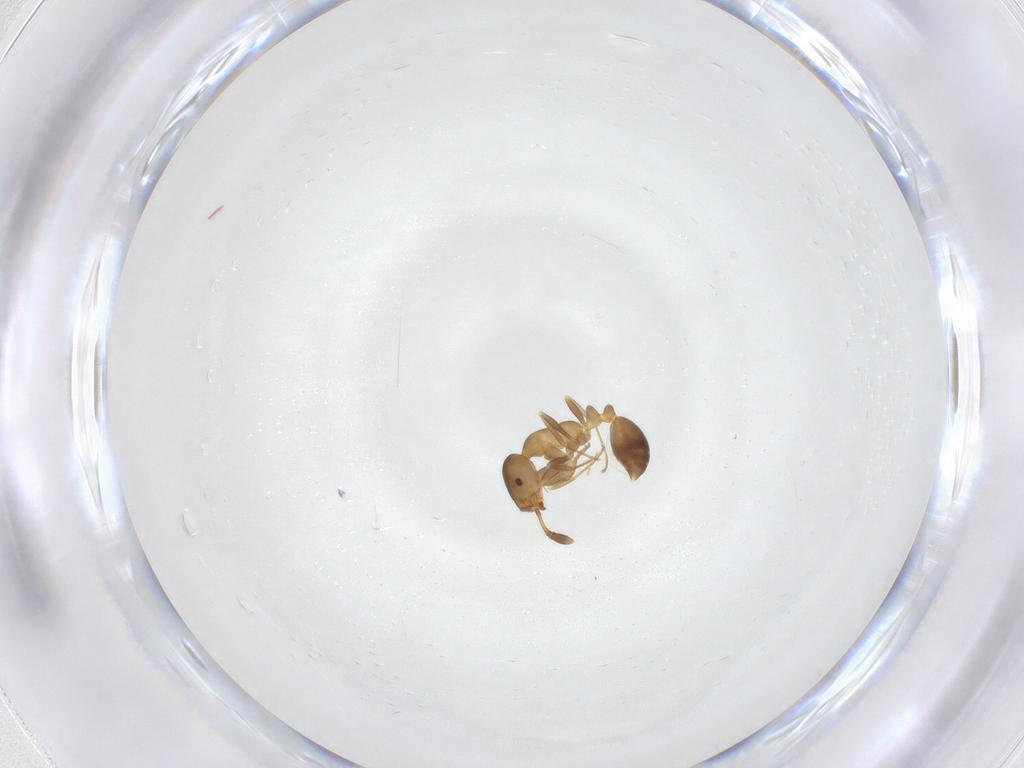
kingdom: Animalia
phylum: Arthropoda
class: Insecta
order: Hymenoptera
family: Formicidae
